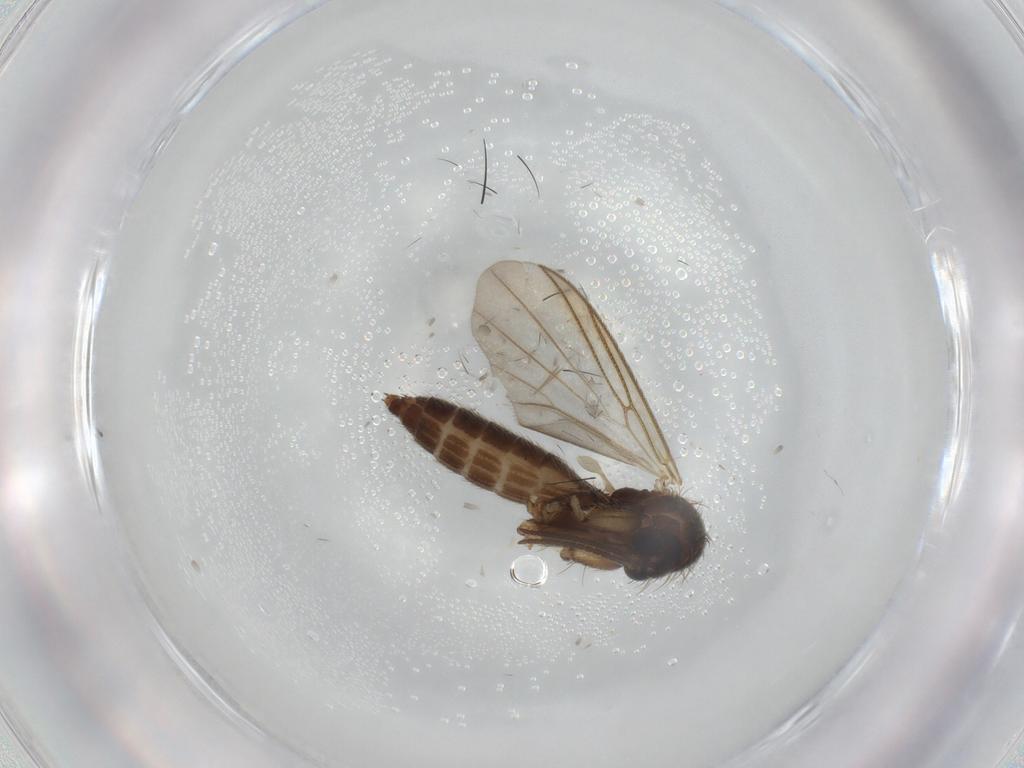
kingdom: Animalia
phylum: Arthropoda
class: Insecta
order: Diptera
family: Mycetophilidae
